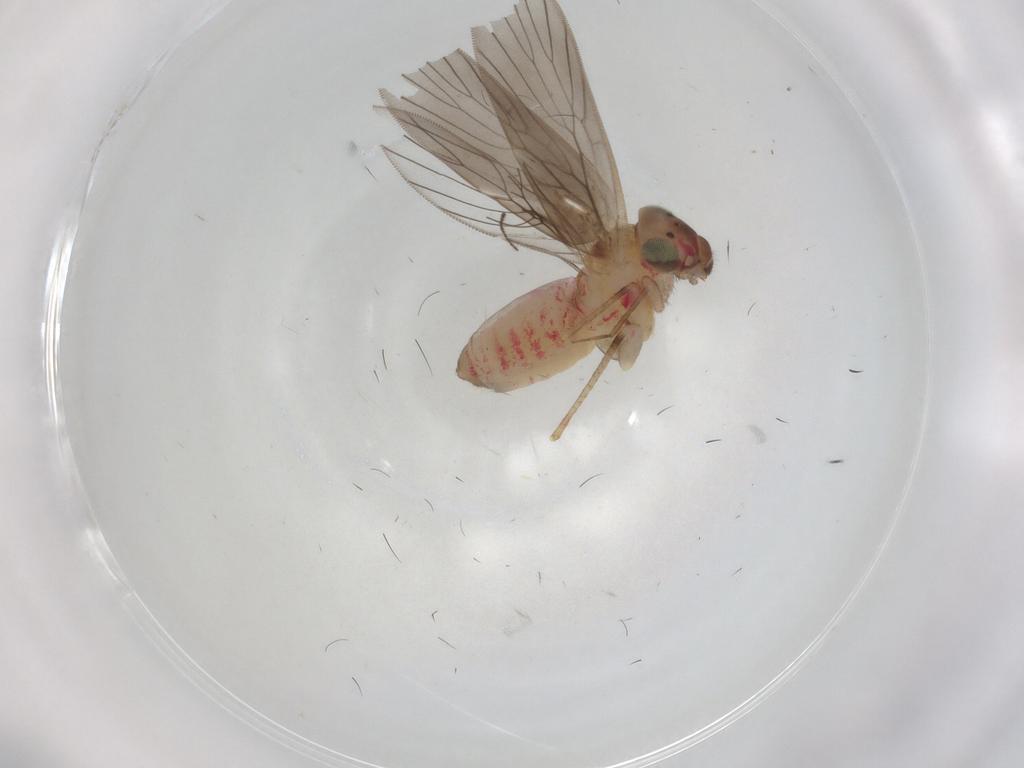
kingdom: Animalia
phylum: Arthropoda
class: Insecta
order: Psocodea
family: Lepidopsocidae
